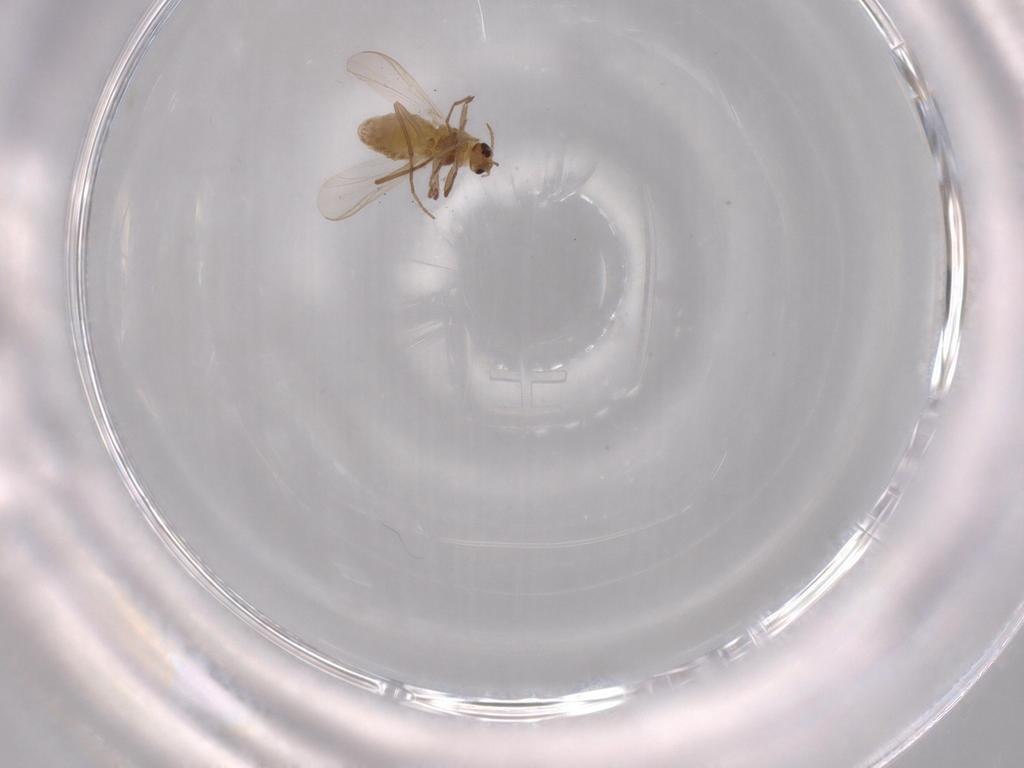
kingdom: Animalia
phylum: Arthropoda
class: Insecta
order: Diptera
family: Chironomidae
